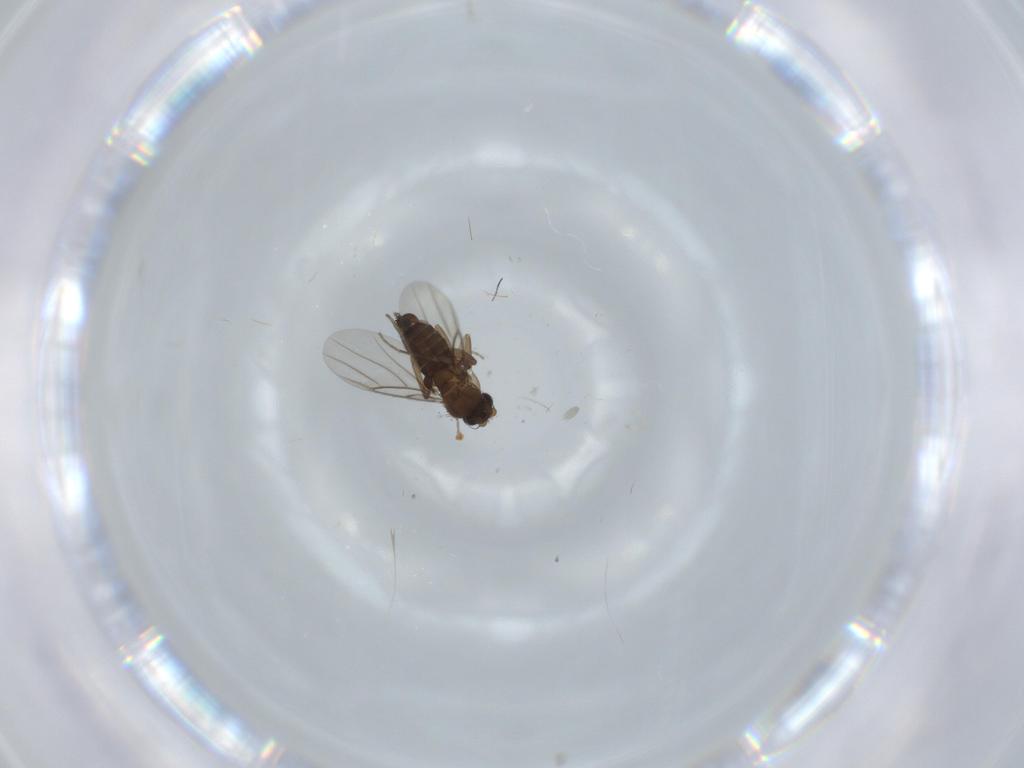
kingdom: Animalia
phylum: Arthropoda
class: Insecta
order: Diptera
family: Phoridae
